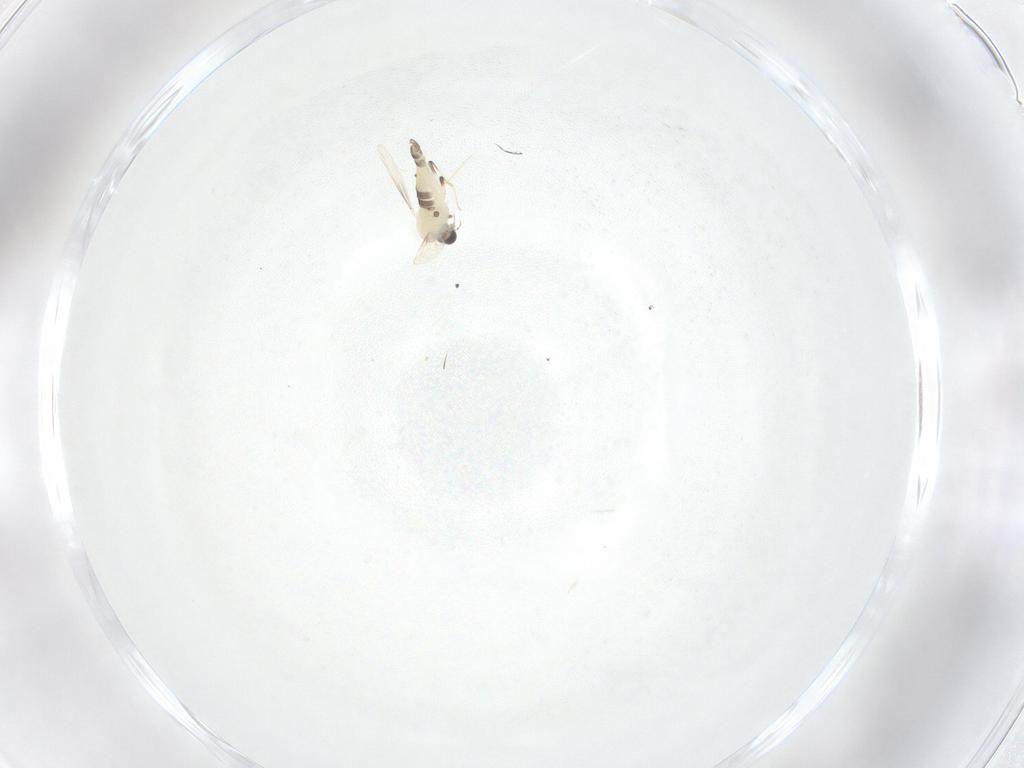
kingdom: Animalia
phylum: Arthropoda
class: Insecta
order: Diptera
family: Chironomidae
